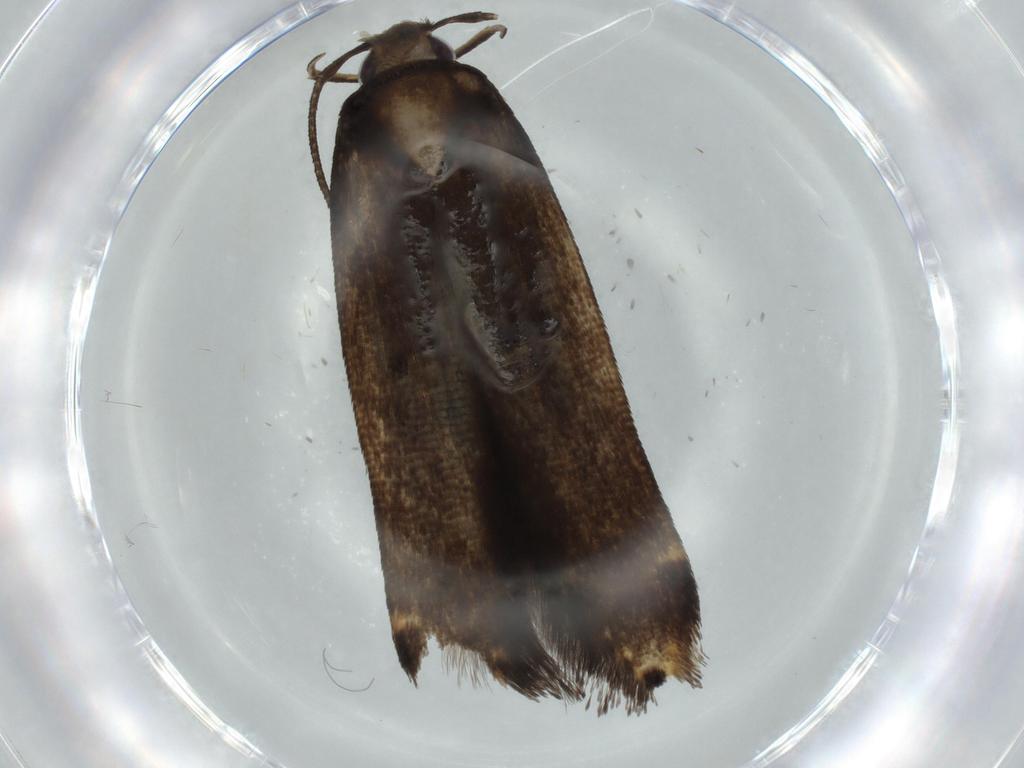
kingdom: Animalia
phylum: Arthropoda
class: Insecta
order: Lepidoptera
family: Cosmopterigidae
